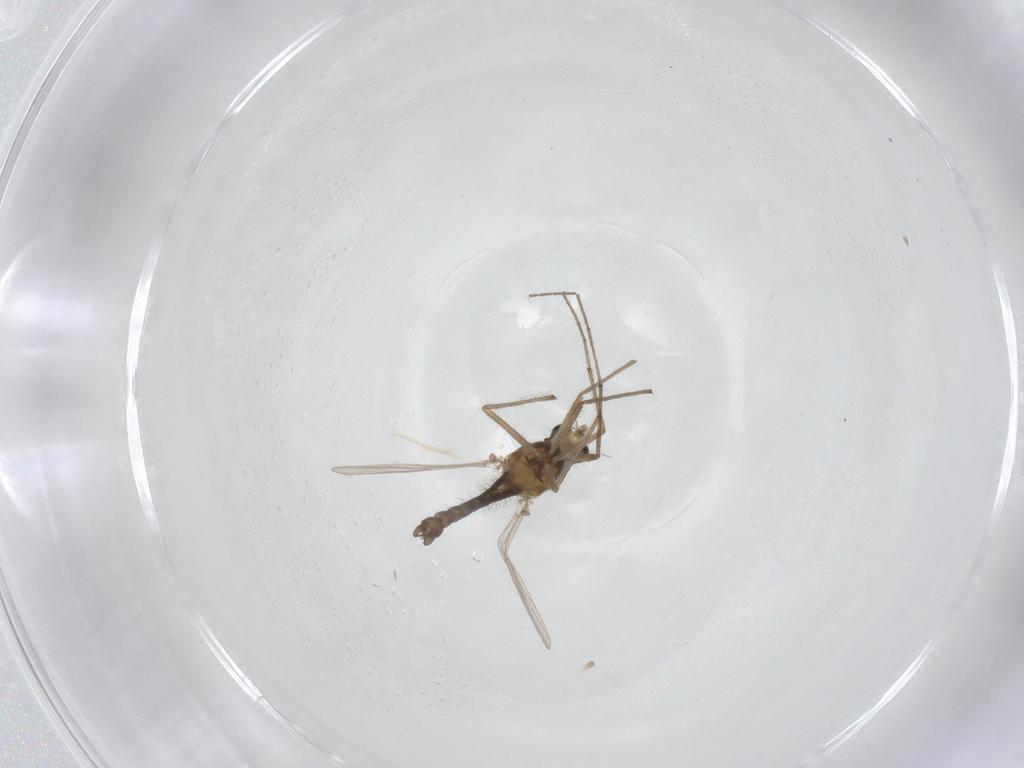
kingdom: Animalia
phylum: Arthropoda
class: Insecta
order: Diptera
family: Chironomidae
